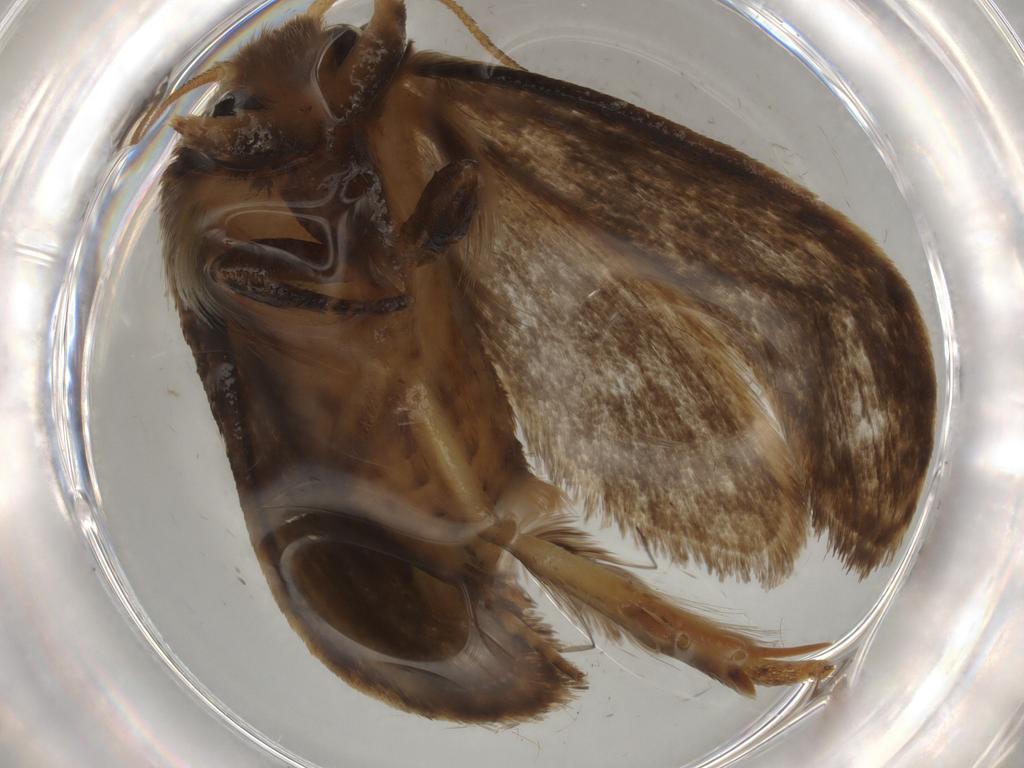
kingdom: Animalia
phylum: Arthropoda
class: Insecta
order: Lepidoptera
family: Tineidae
